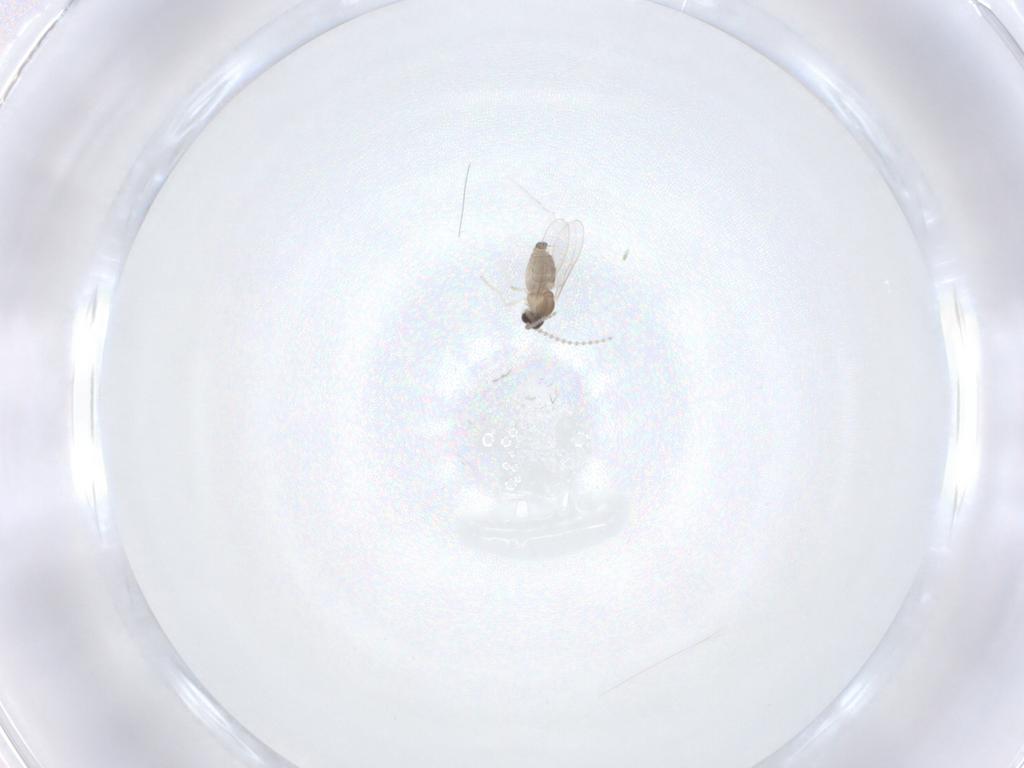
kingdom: Animalia
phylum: Arthropoda
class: Insecta
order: Diptera
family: Cecidomyiidae
